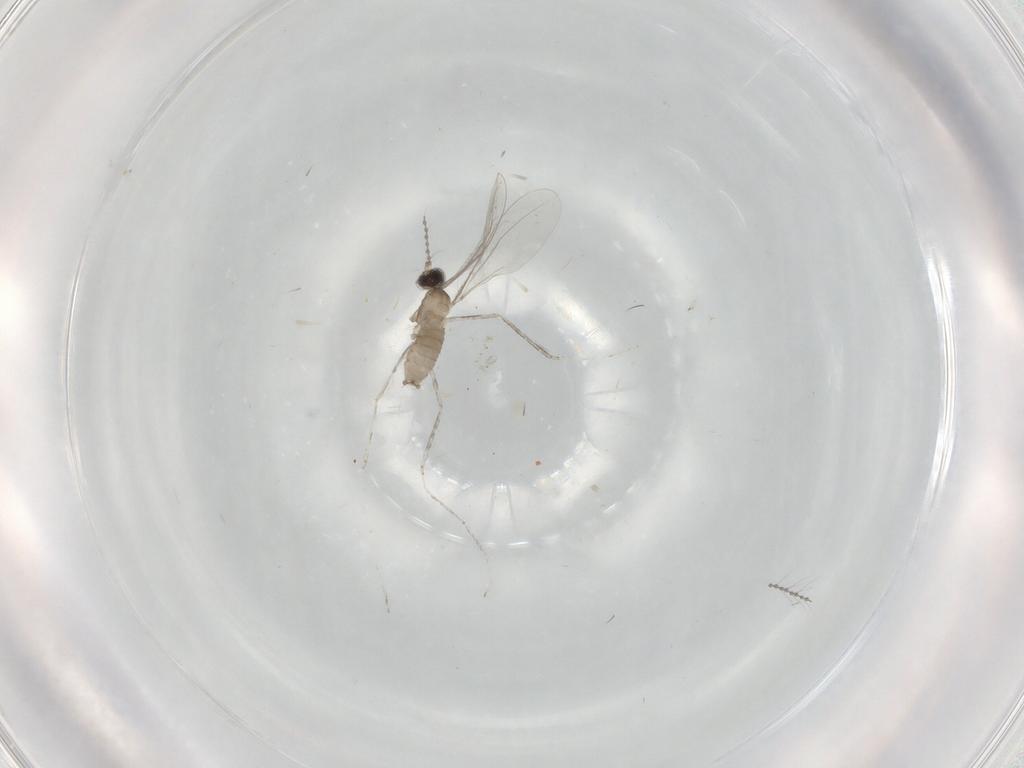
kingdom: Animalia
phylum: Arthropoda
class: Insecta
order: Diptera
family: Cecidomyiidae
